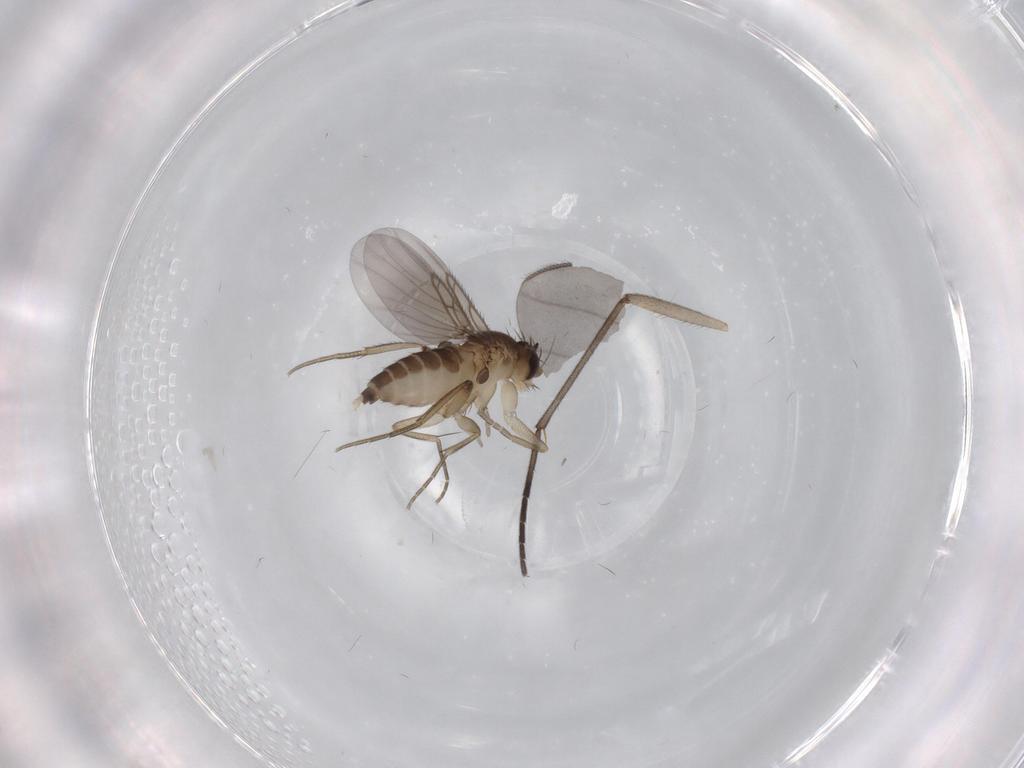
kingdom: Animalia
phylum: Arthropoda
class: Insecta
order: Diptera
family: Phoridae
